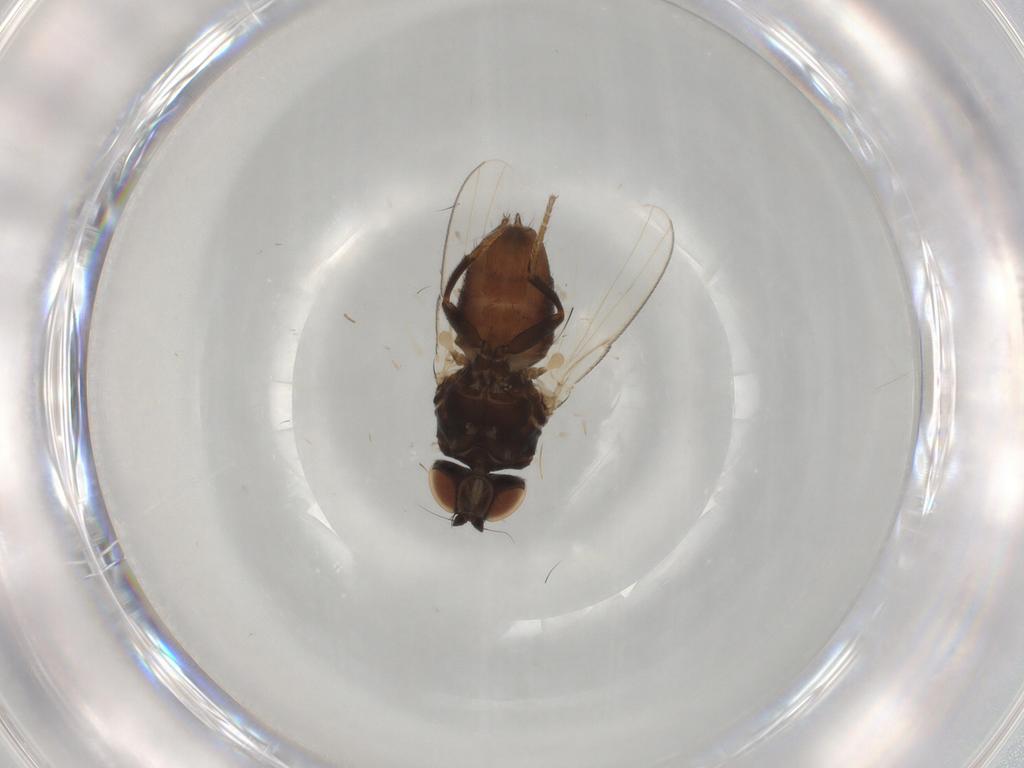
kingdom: Animalia
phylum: Arthropoda
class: Insecta
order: Diptera
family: Milichiidae
